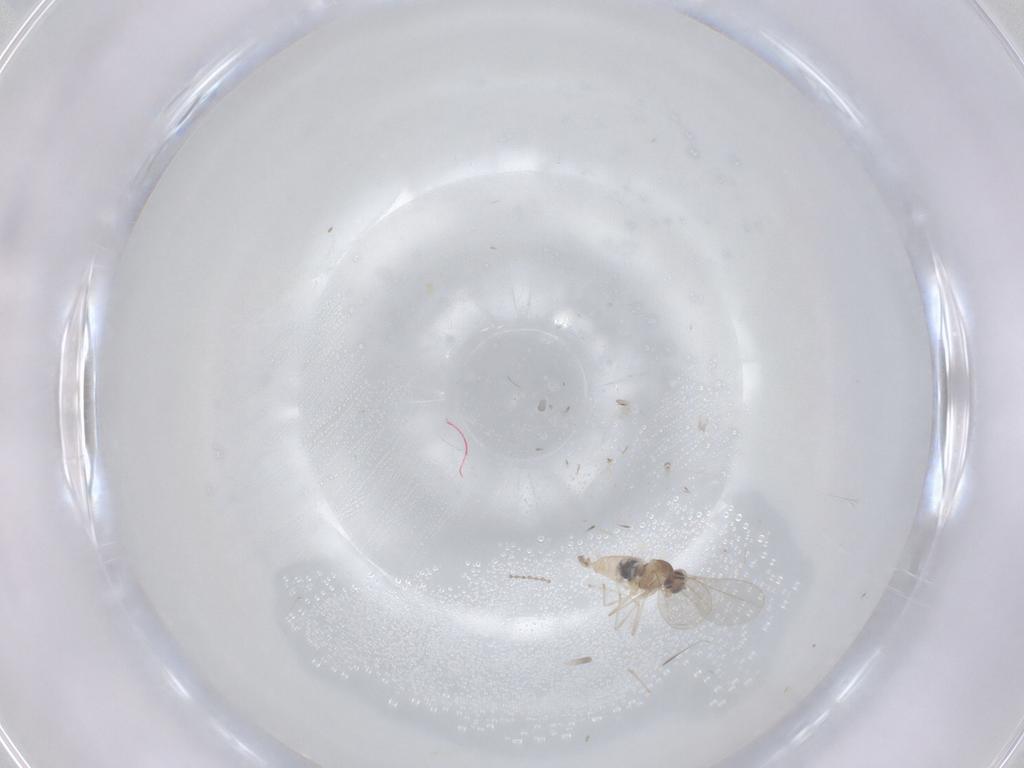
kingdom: Animalia
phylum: Arthropoda
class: Insecta
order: Diptera
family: Cecidomyiidae
